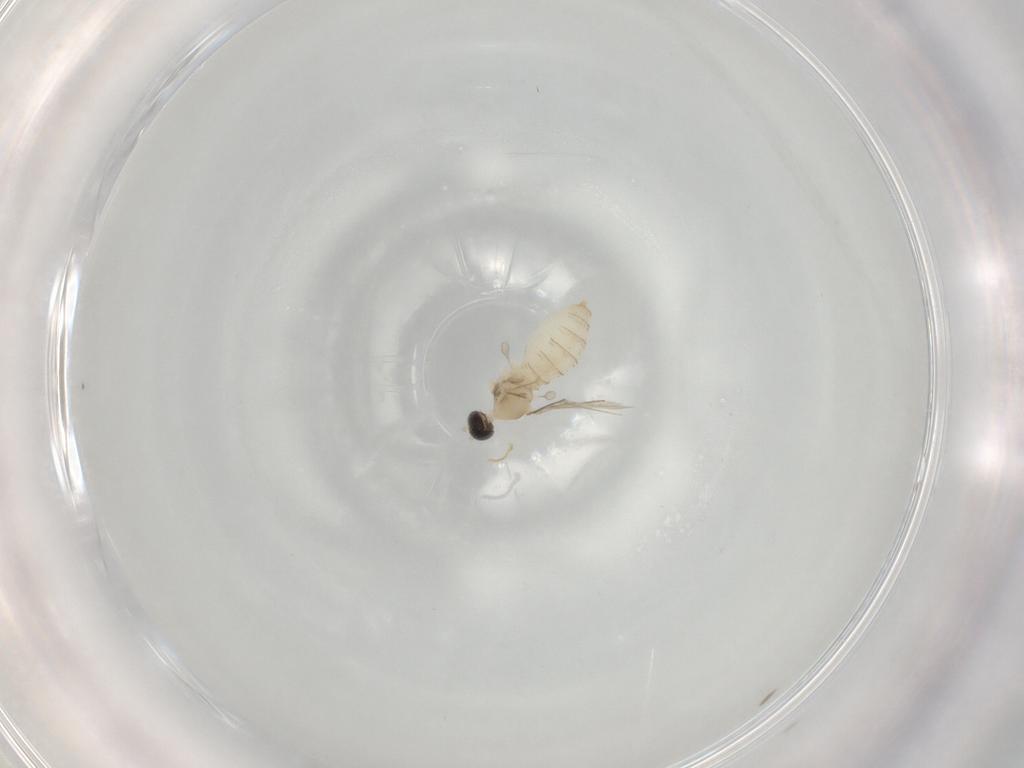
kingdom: Animalia
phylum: Arthropoda
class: Insecta
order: Diptera
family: Cecidomyiidae
